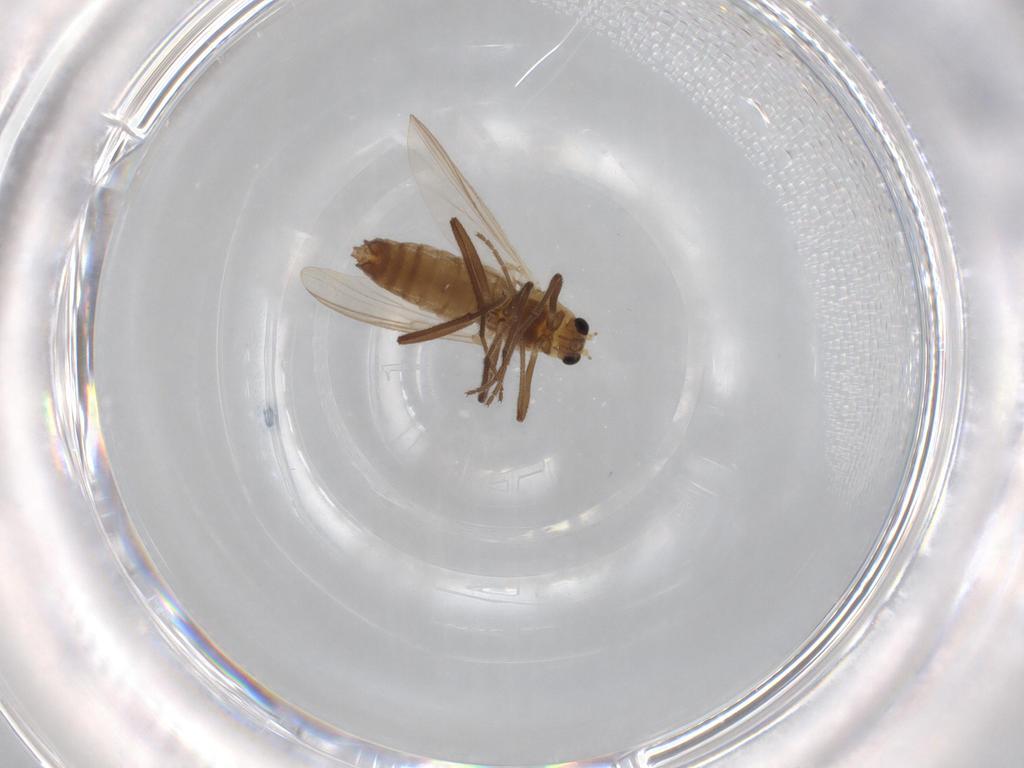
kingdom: Animalia
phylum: Arthropoda
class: Insecta
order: Diptera
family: Chironomidae
